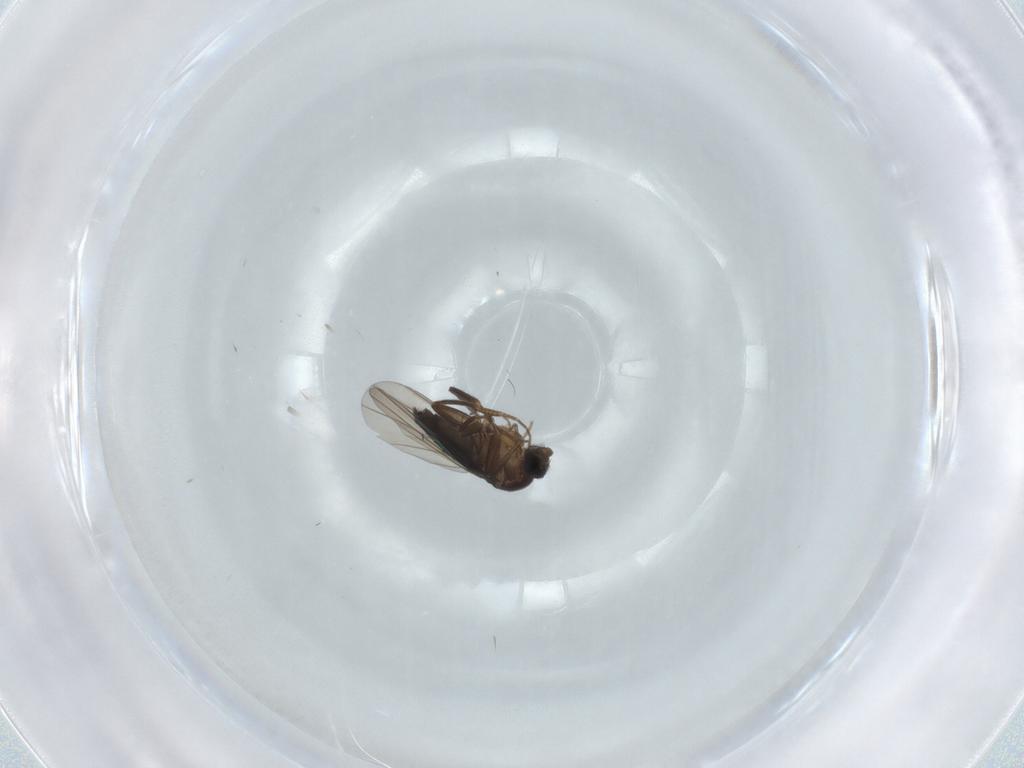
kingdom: Animalia
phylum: Arthropoda
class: Insecta
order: Diptera
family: Phoridae
